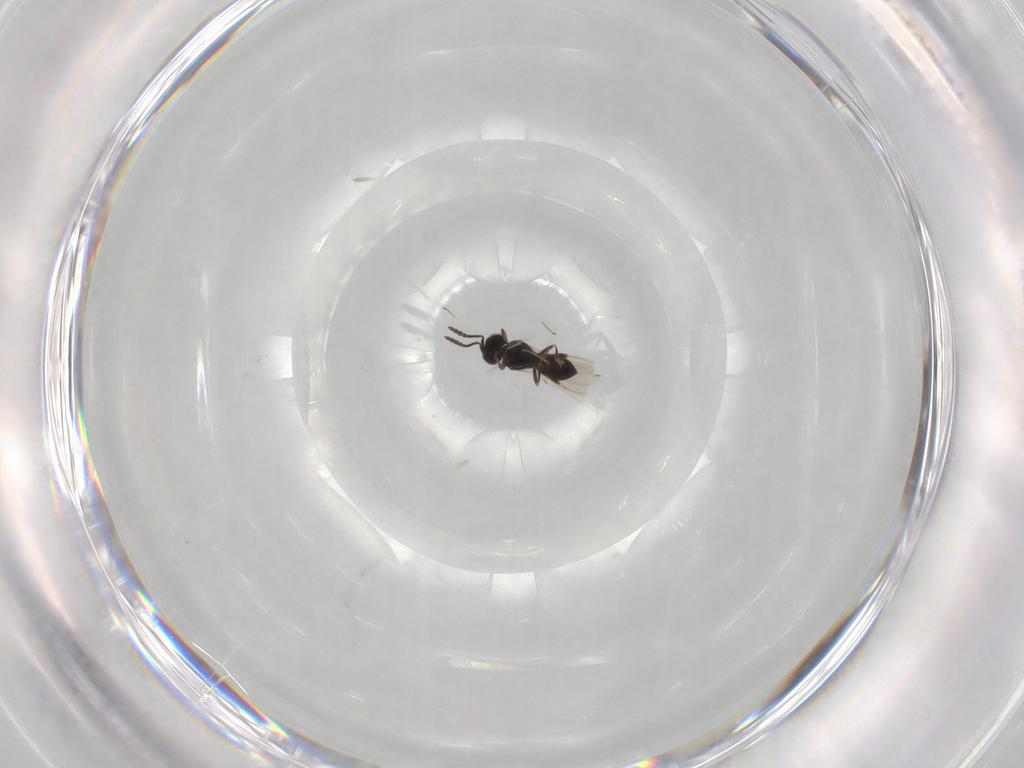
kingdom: Animalia
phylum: Arthropoda
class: Insecta
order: Hymenoptera
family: Scelionidae
